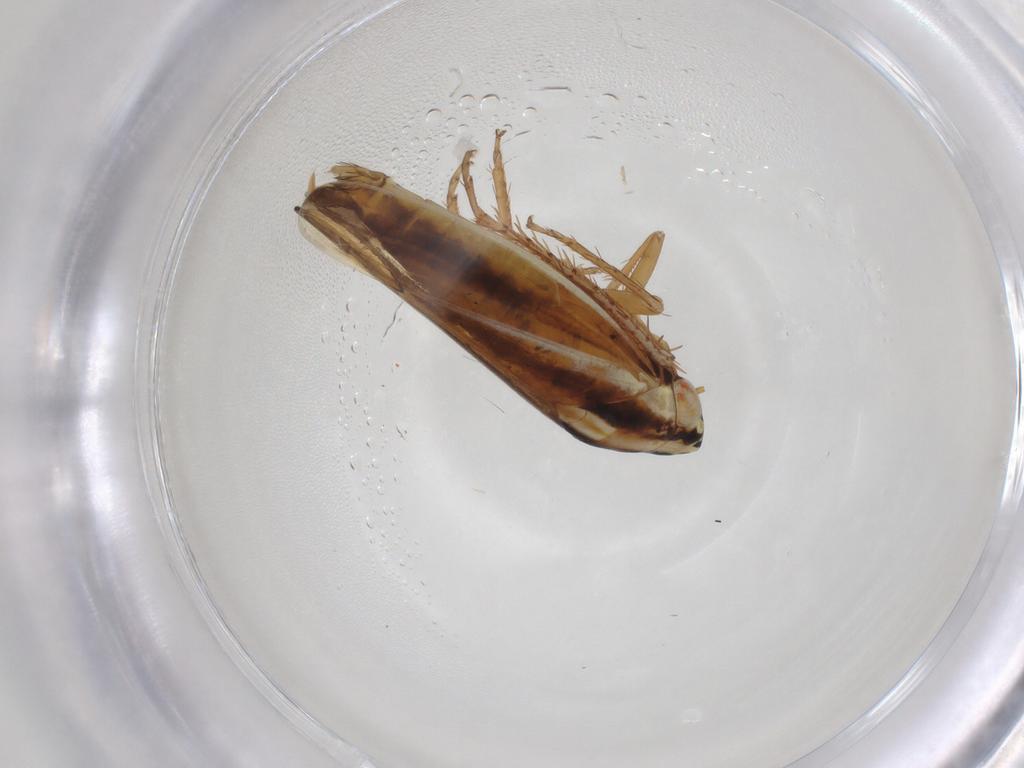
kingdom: Animalia
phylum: Arthropoda
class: Insecta
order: Hemiptera
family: Cicadellidae
